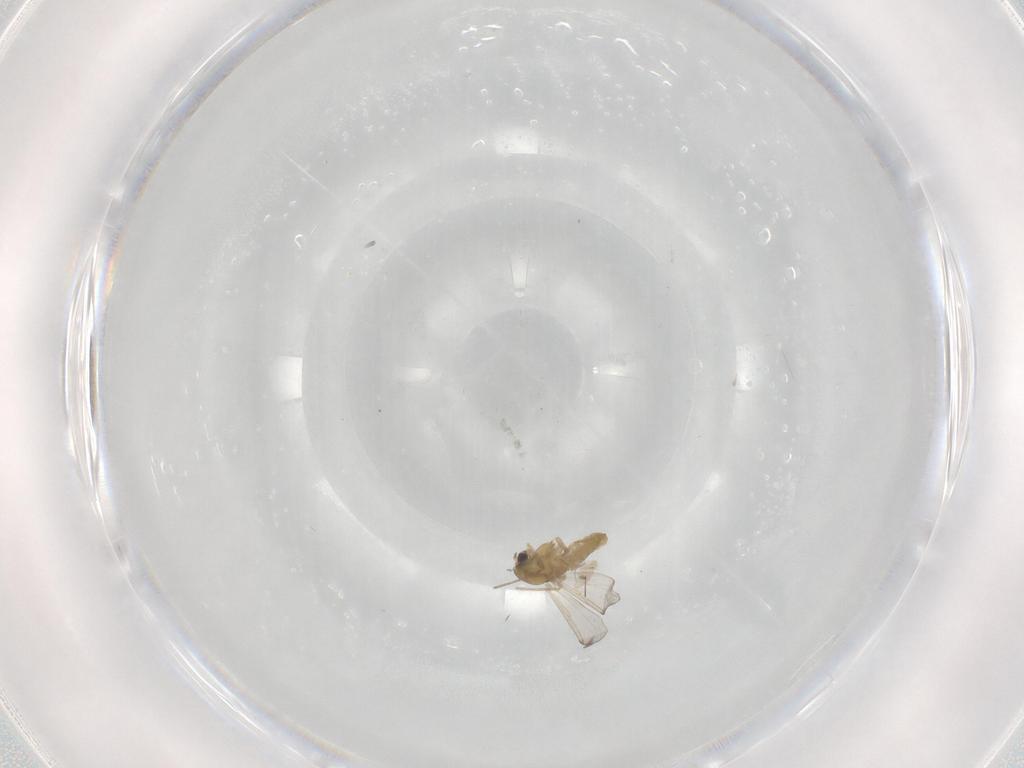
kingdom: Animalia
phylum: Arthropoda
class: Insecta
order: Diptera
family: Chironomidae
